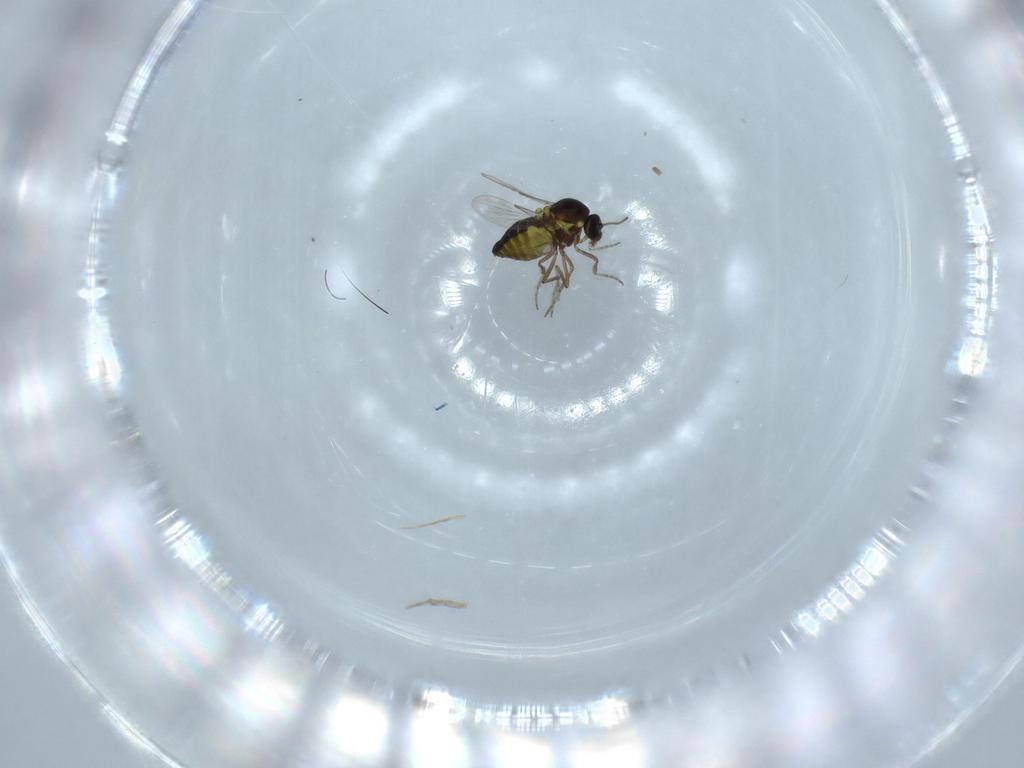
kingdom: Animalia
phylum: Arthropoda
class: Insecta
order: Diptera
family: Ceratopogonidae
